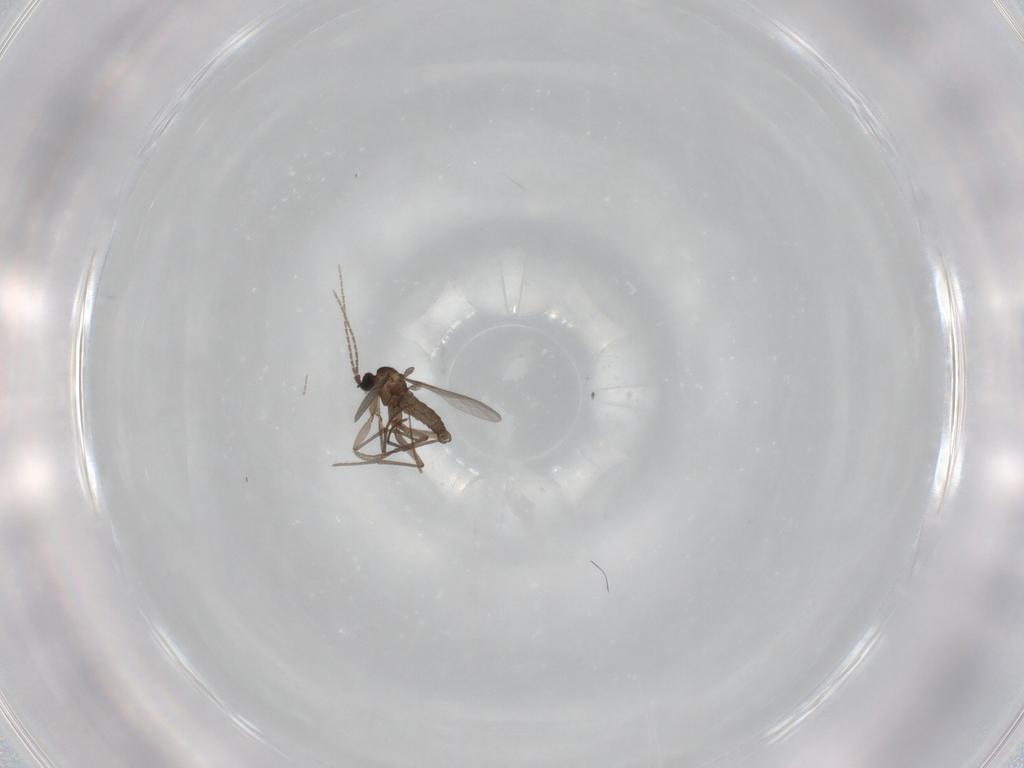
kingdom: Animalia
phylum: Arthropoda
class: Insecta
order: Diptera
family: Sciaridae
